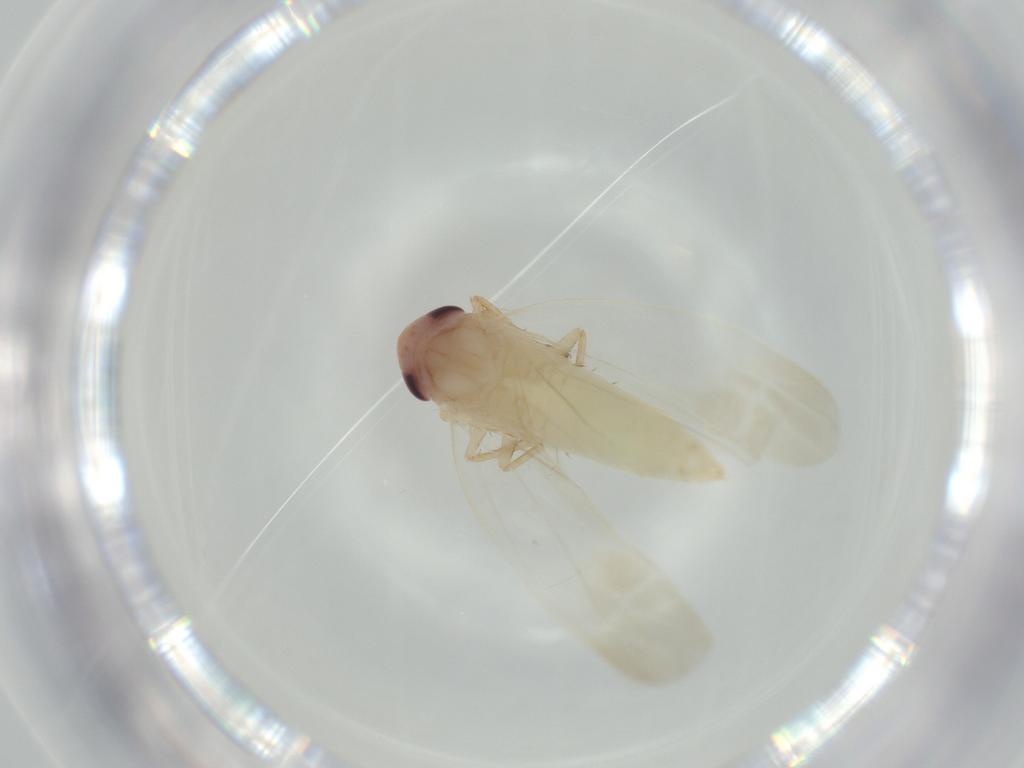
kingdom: Animalia
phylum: Arthropoda
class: Insecta
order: Hemiptera
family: Cicadellidae
